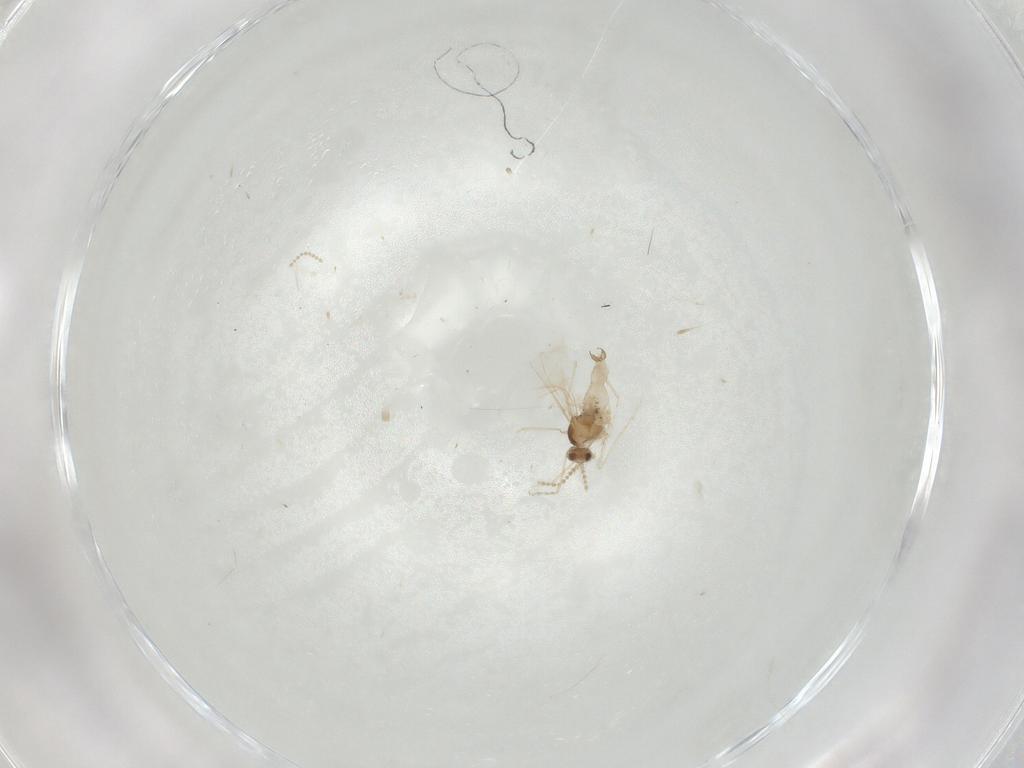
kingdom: Animalia
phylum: Arthropoda
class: Insecta
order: Diptera
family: Cecidomyiidae
